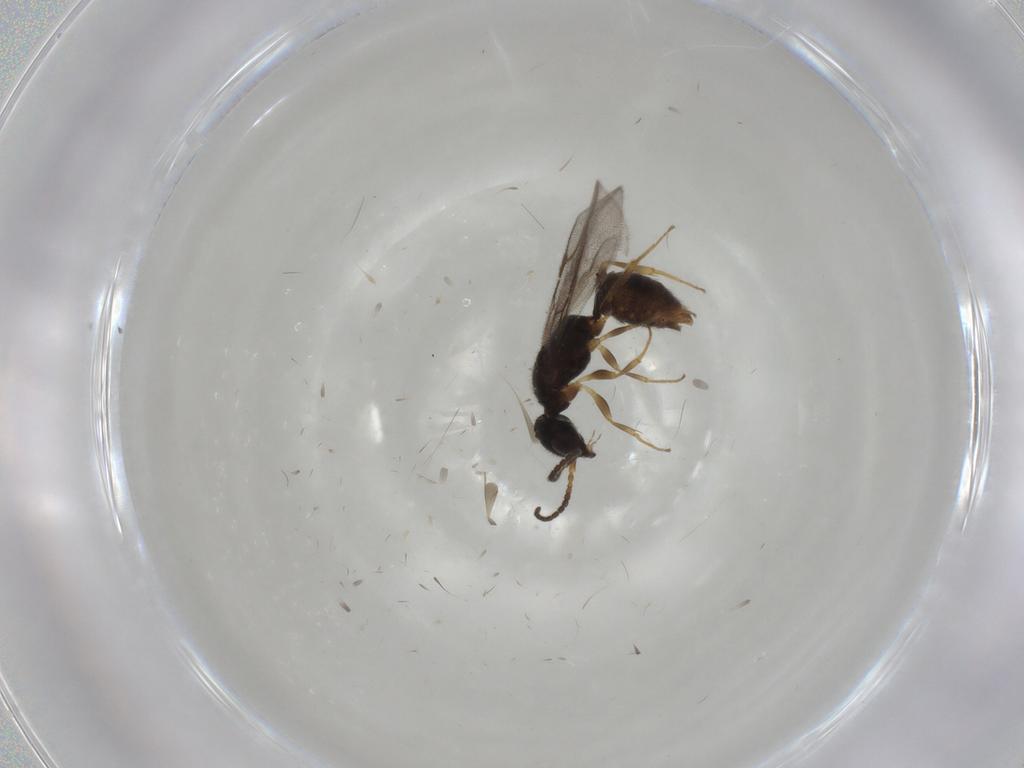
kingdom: Animalia
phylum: Arthropoda
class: Insecta
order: Hymenoptera
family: Bethylidae
